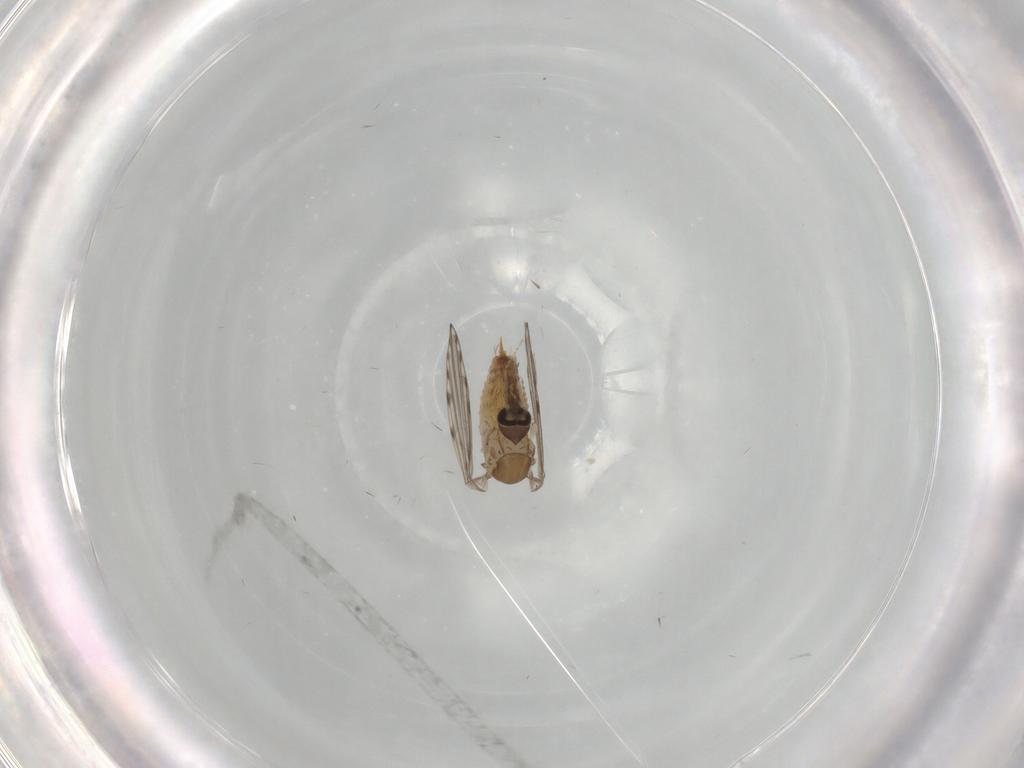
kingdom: Animalia
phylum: Arthropoda
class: Insecta
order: Diptera
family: Psychodidae
